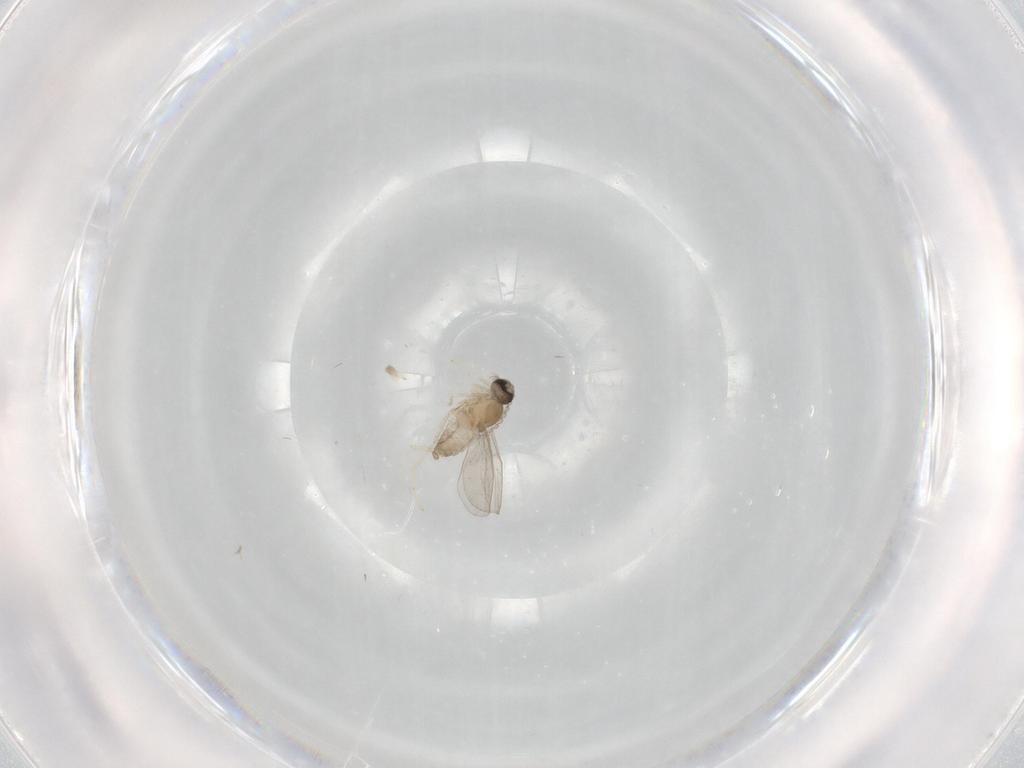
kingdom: Animalia
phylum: Arthropoda
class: Insecta
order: Diptera
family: Cecidomyiidae
